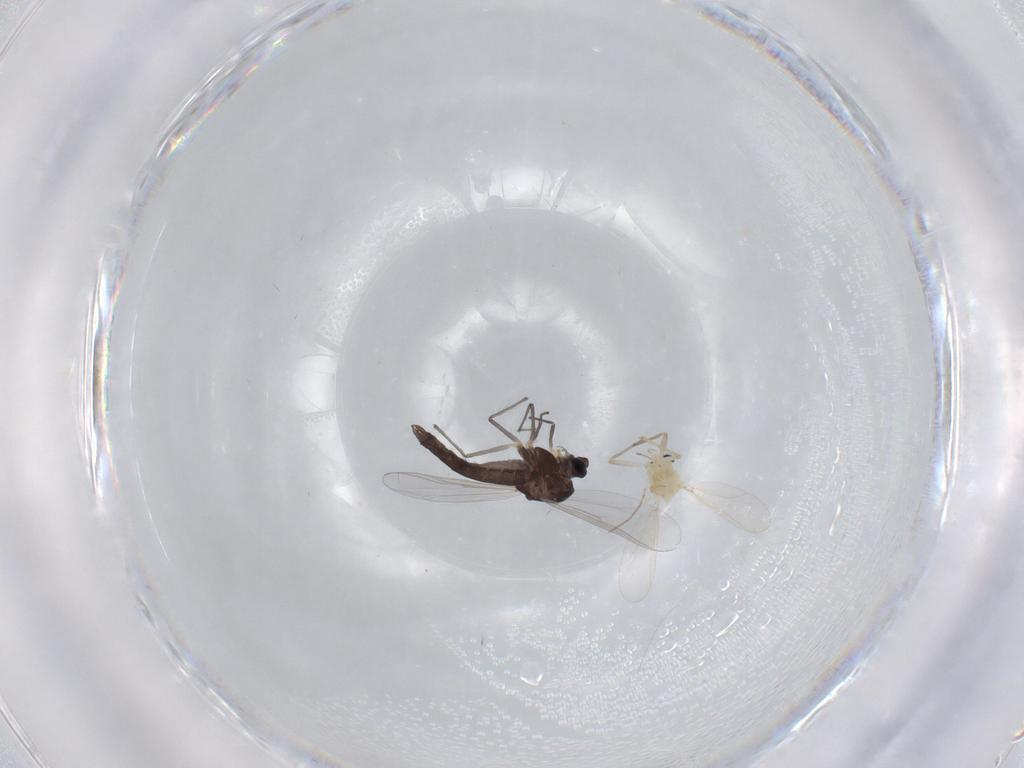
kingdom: Animalia
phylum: Arthropoda
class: Insecta
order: Diptera
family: Chironomidae
